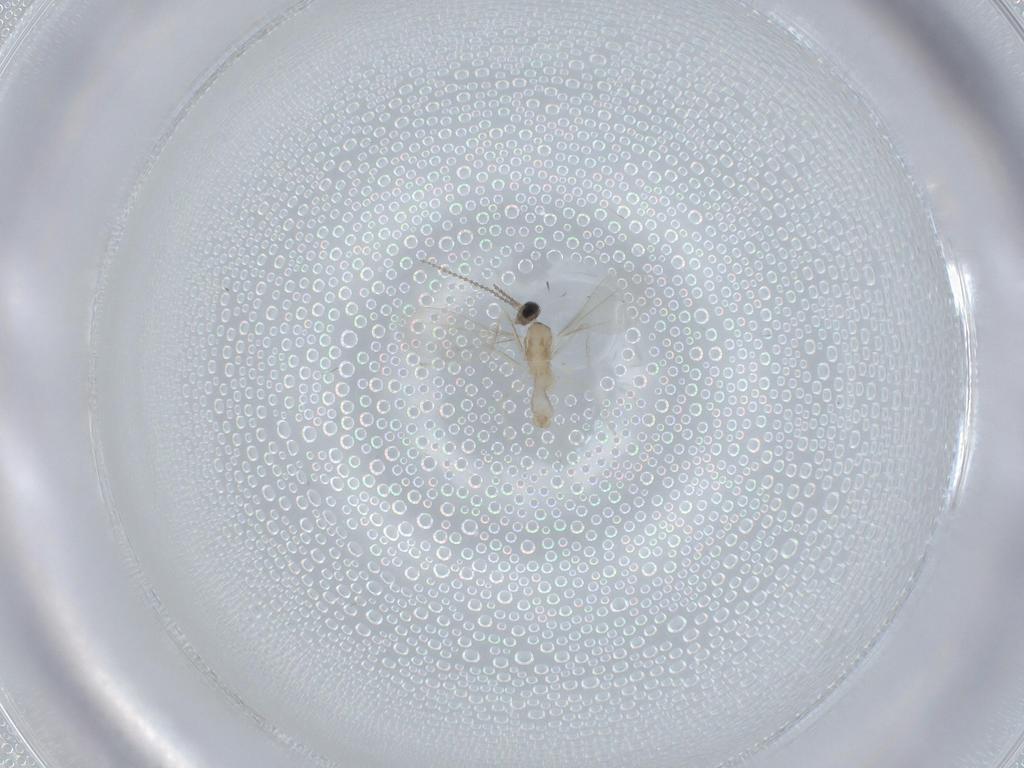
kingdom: Animalia
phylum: Arthropoda
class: Insecta
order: Diptera
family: Cecidomyiidae
